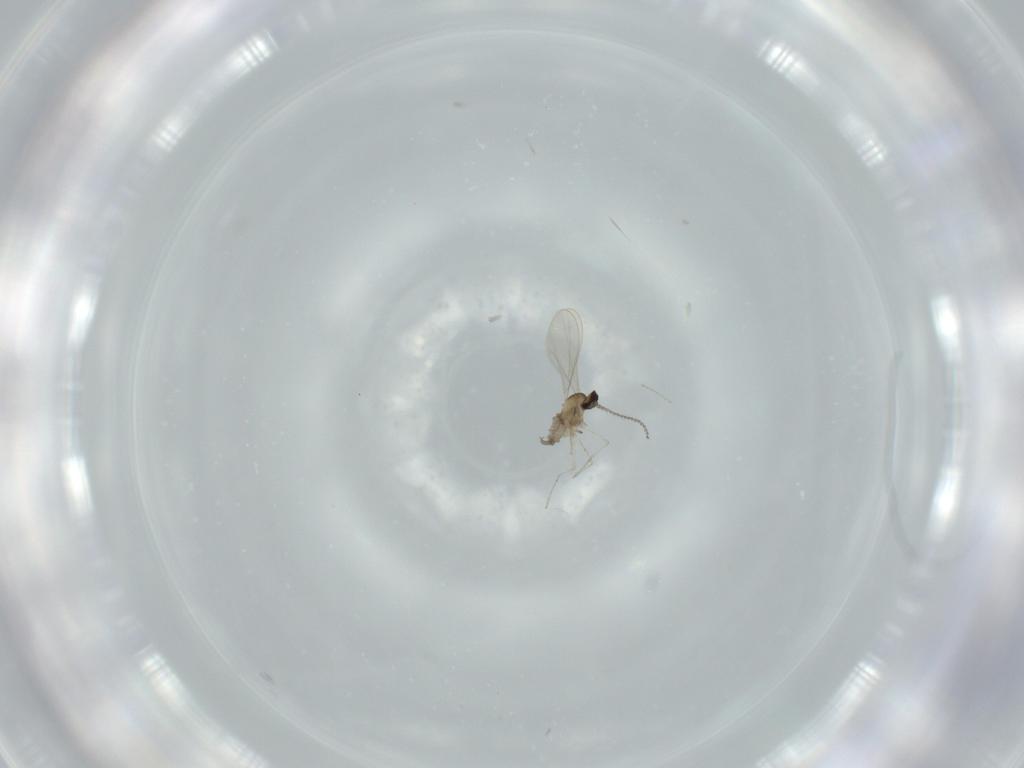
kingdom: Animalia
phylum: Arthropoda
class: Insecta
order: Diptera
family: Cecidomyiidae
